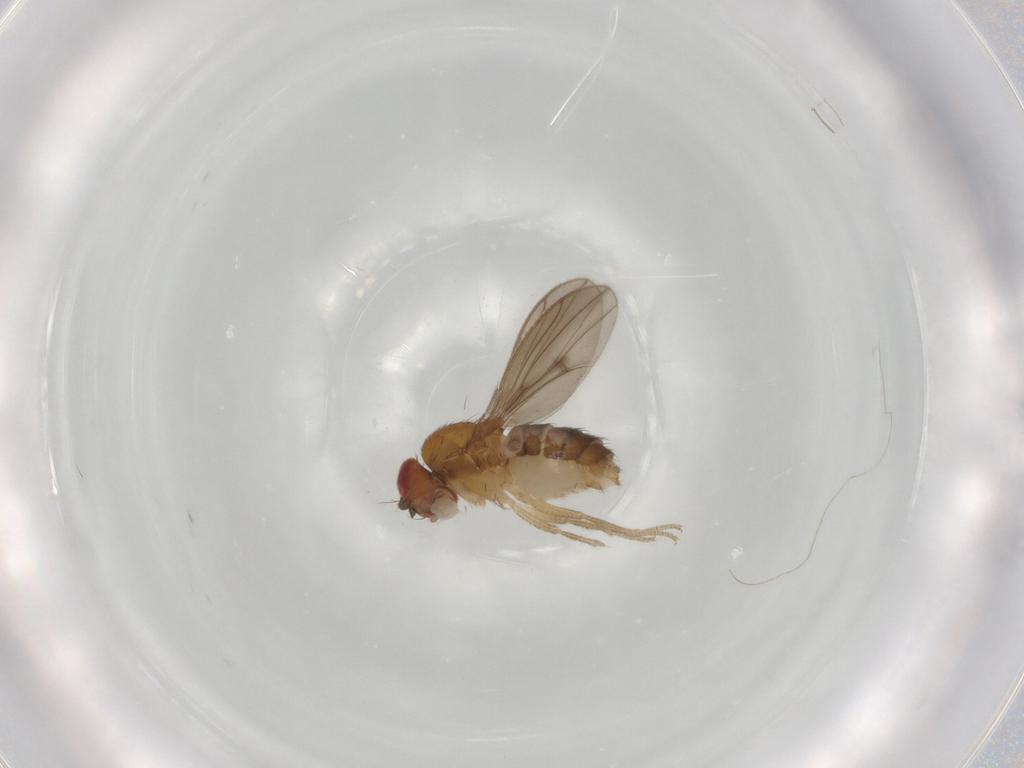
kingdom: Animalia
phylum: Arthropoda
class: Insecta
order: Diptera
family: Drosophilidae
